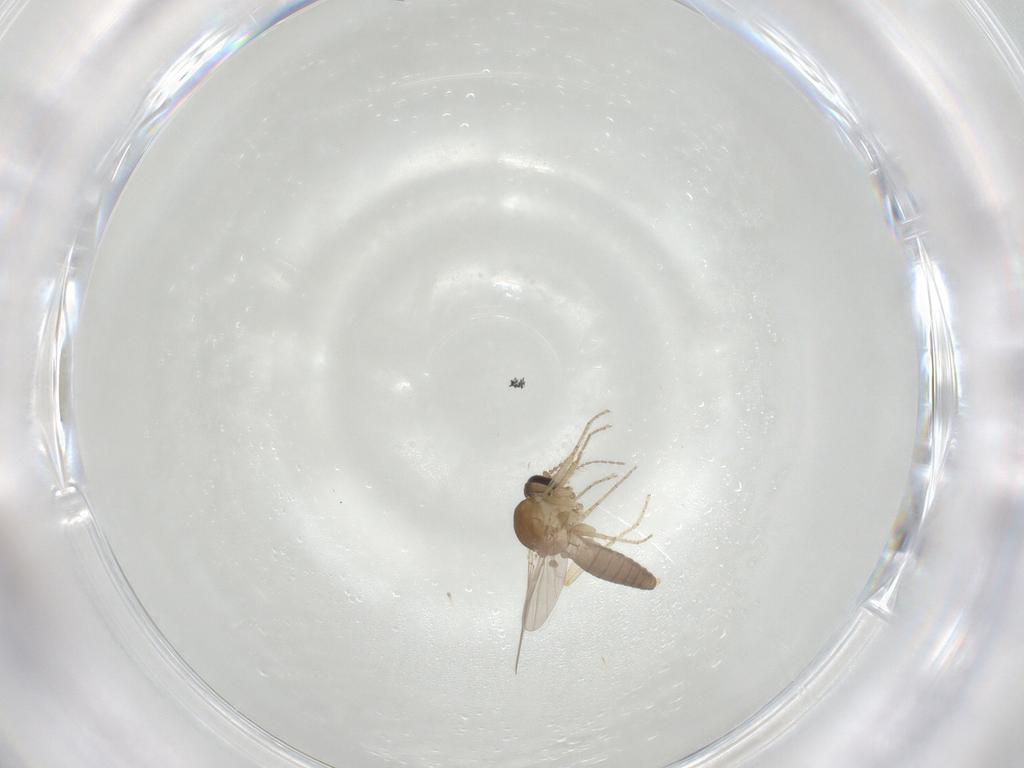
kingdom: Animalia
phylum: Arthropoda
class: Insecta
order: Diptera
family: Ceratopogonidae
